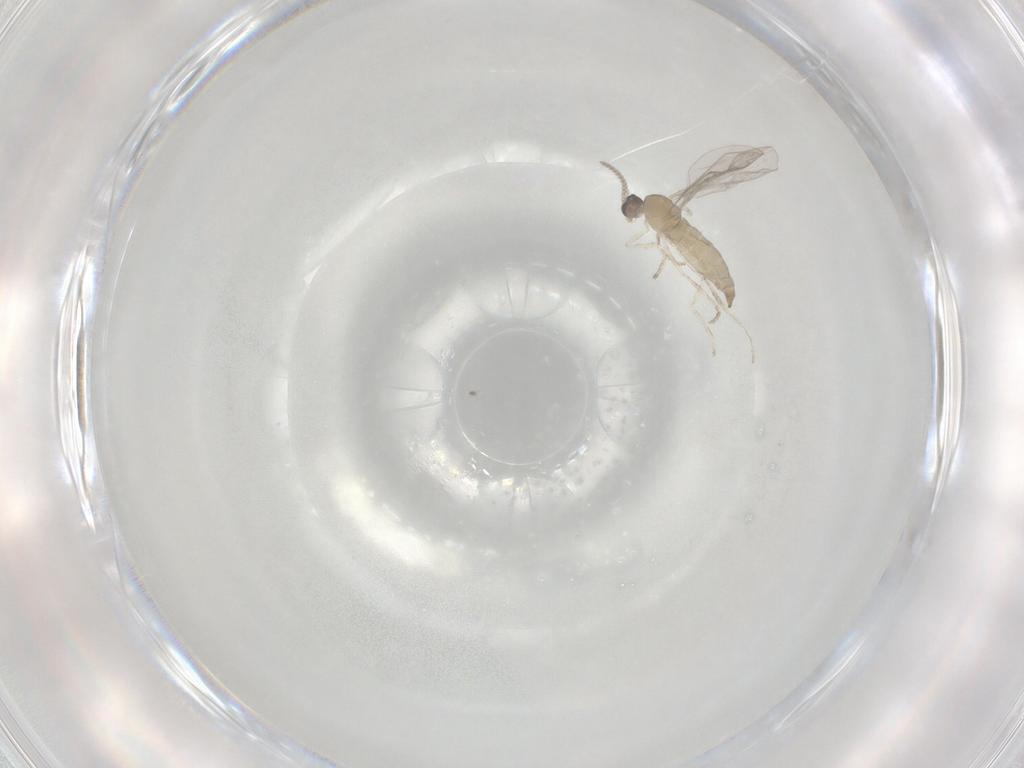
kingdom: Animalia
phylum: Arthropoda
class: Insecta
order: Diptera
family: Cecidomyiidae
